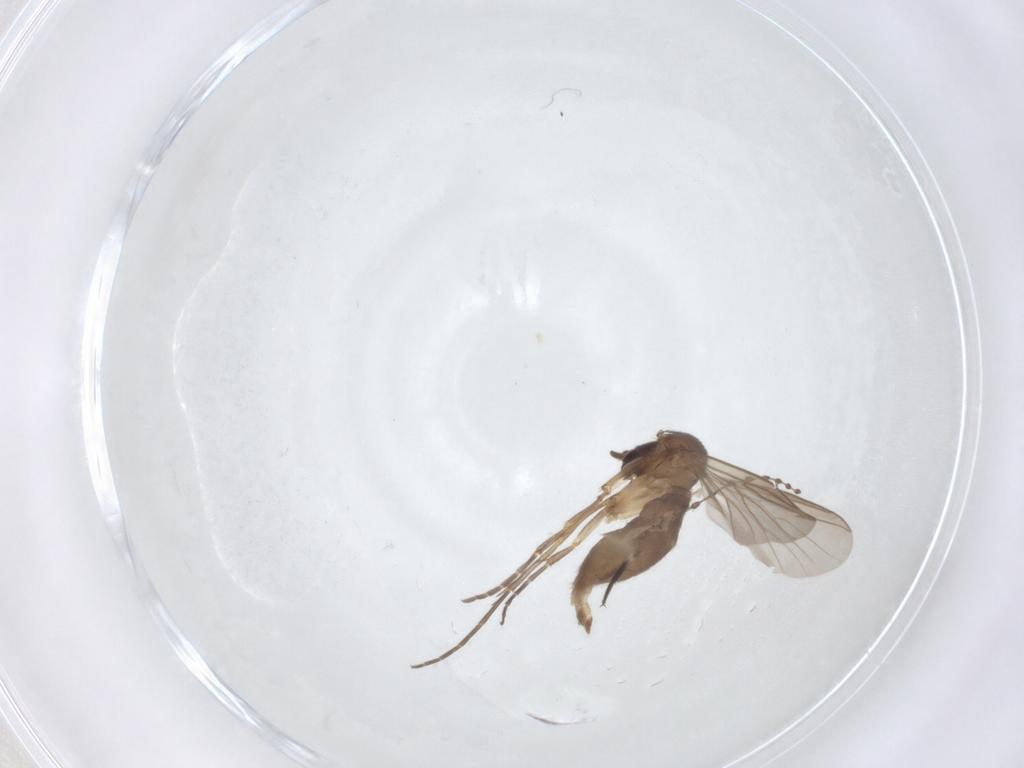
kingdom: Animalia
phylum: Arthropoda
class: Insecta
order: Diptera
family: Mycetophilidae
